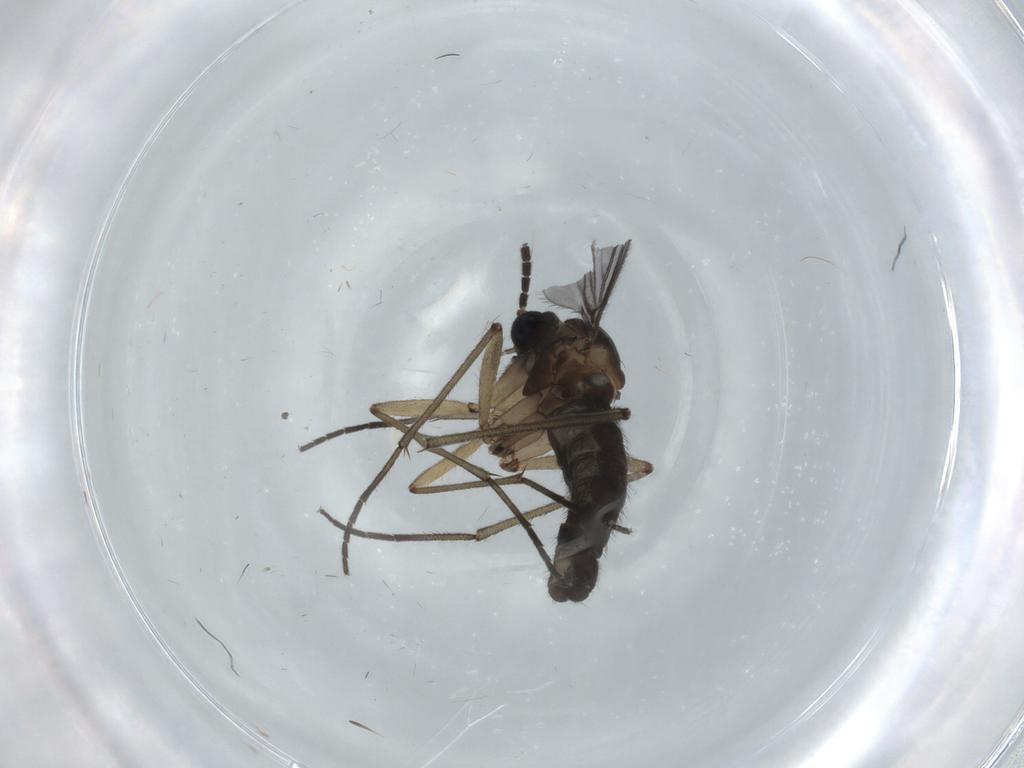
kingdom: Animalia
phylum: Arthropoda
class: Insecta
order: Diptera
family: Sciaridae
